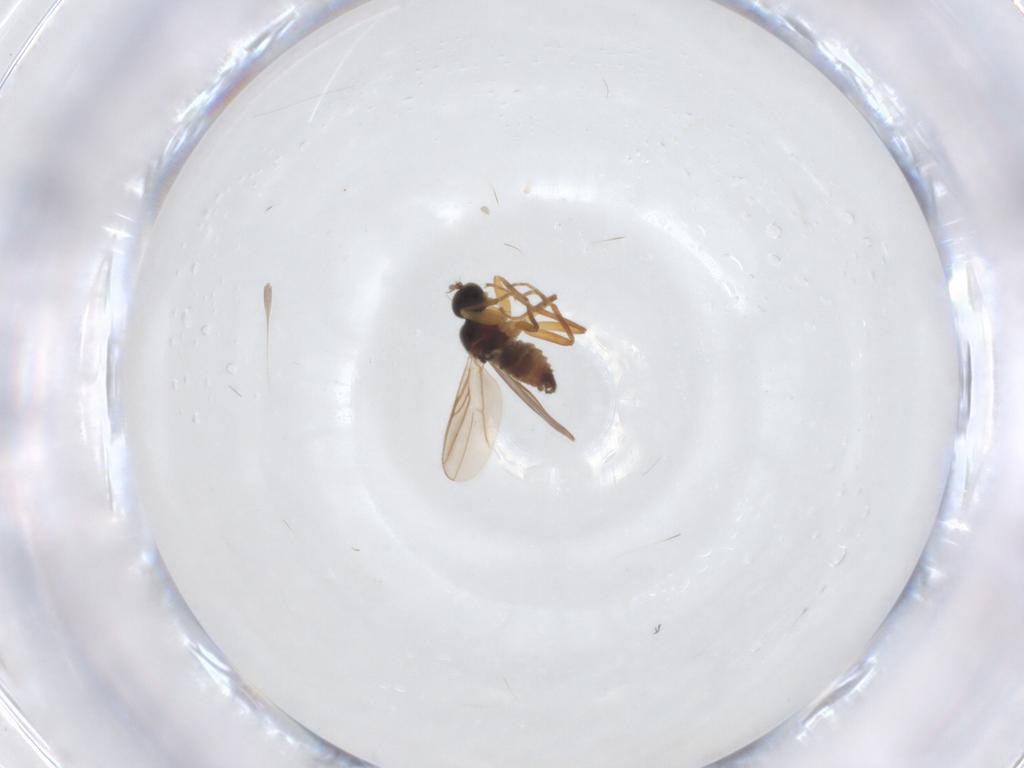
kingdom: Animalia
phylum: Arthropoda
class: Insecta
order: Diptera
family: Hybotidae
